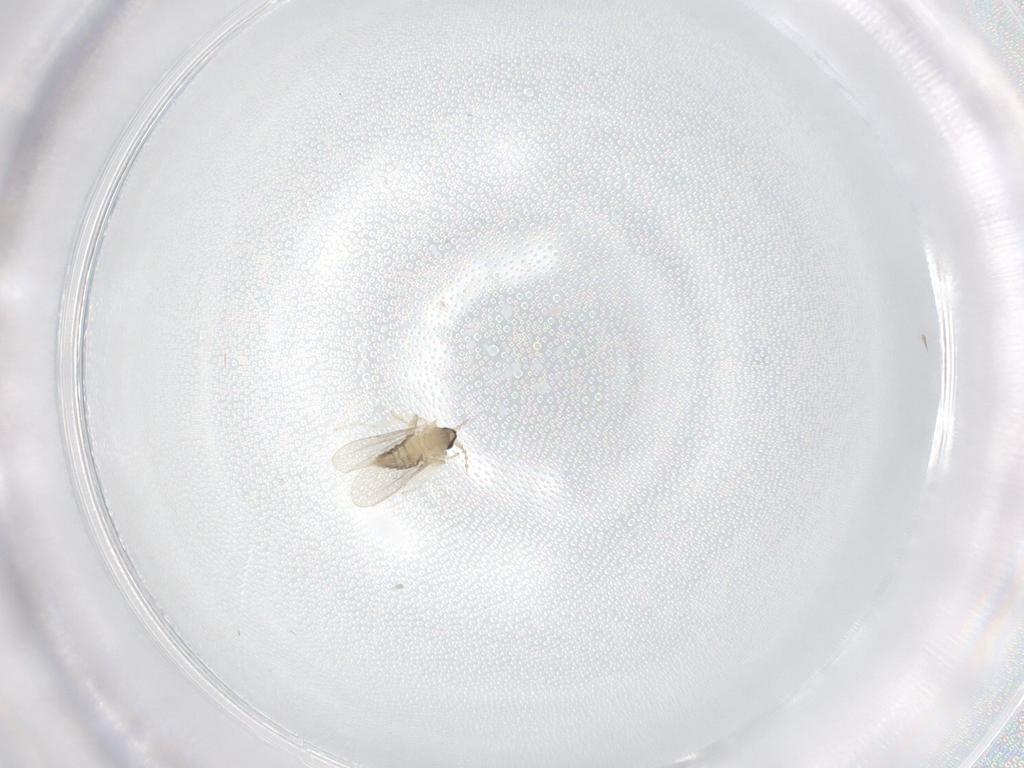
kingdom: Animalia
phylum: Arthropoda
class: Insecta
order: Diptera
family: Cecidomyiidae
